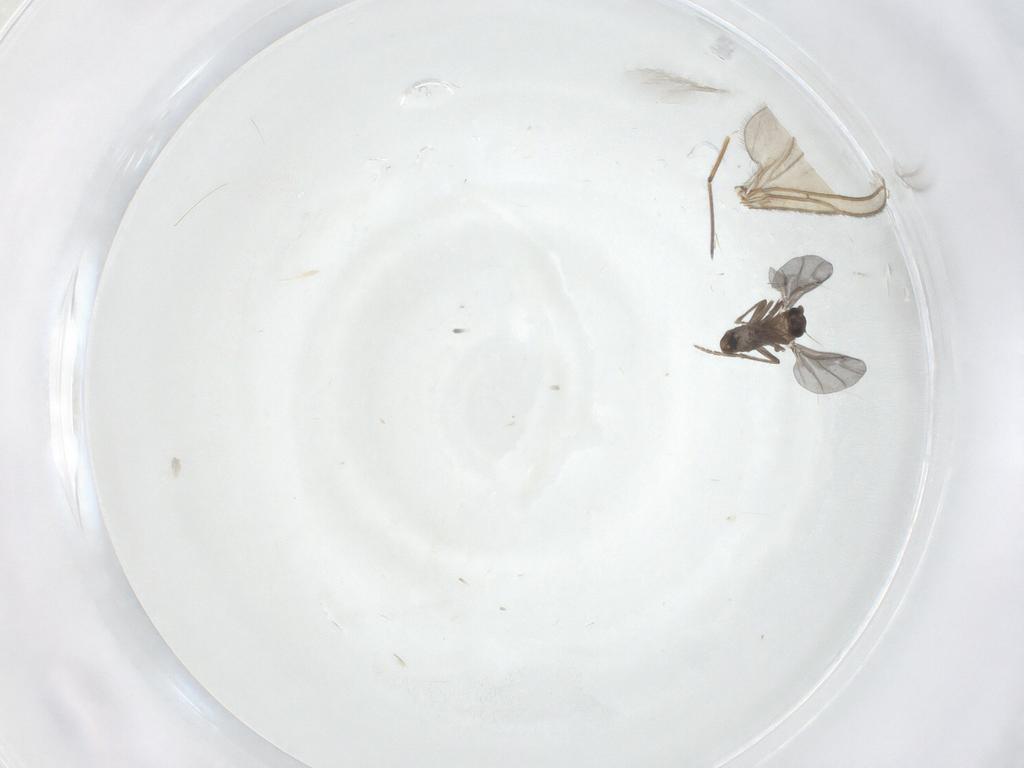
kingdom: Animalia
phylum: Arthropoda
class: Insecta
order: Diptera
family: Sciaridae
